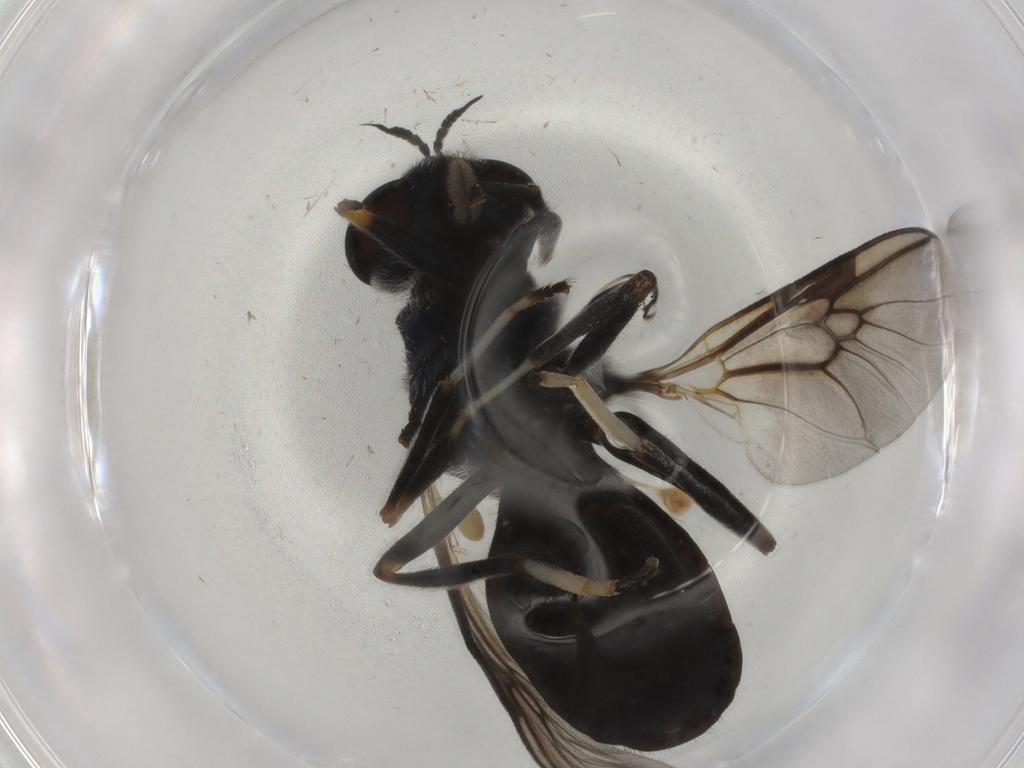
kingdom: Animalia
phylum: Arthropoda
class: Insecta
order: Diptera
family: Chironomidae
